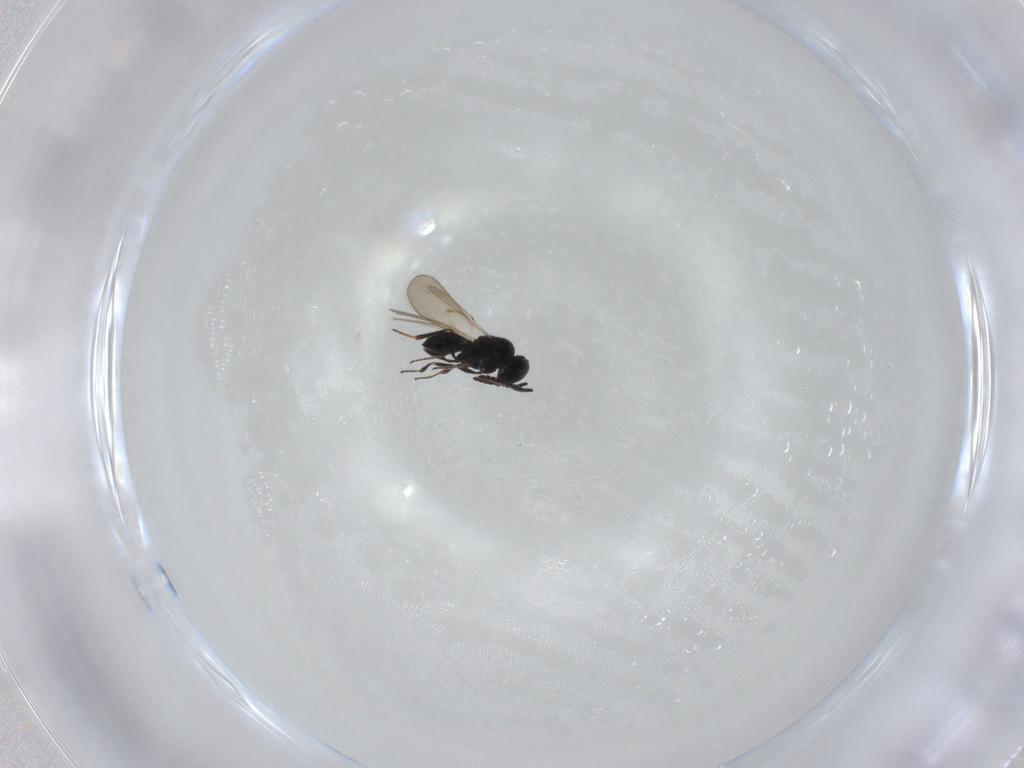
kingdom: Animalia
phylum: Arthropoda
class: Insecta
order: Hymenoptera
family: Scelionidae
